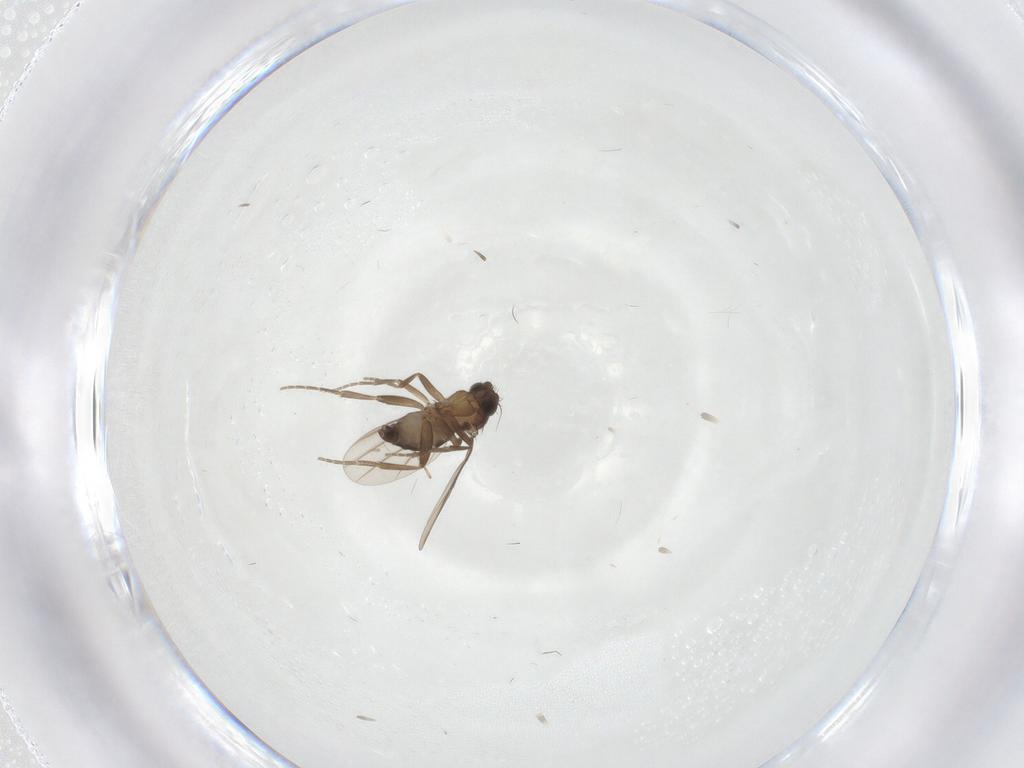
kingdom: Animalia
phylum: Arthropoda
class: Insecta
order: Diptera
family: Phoridae
